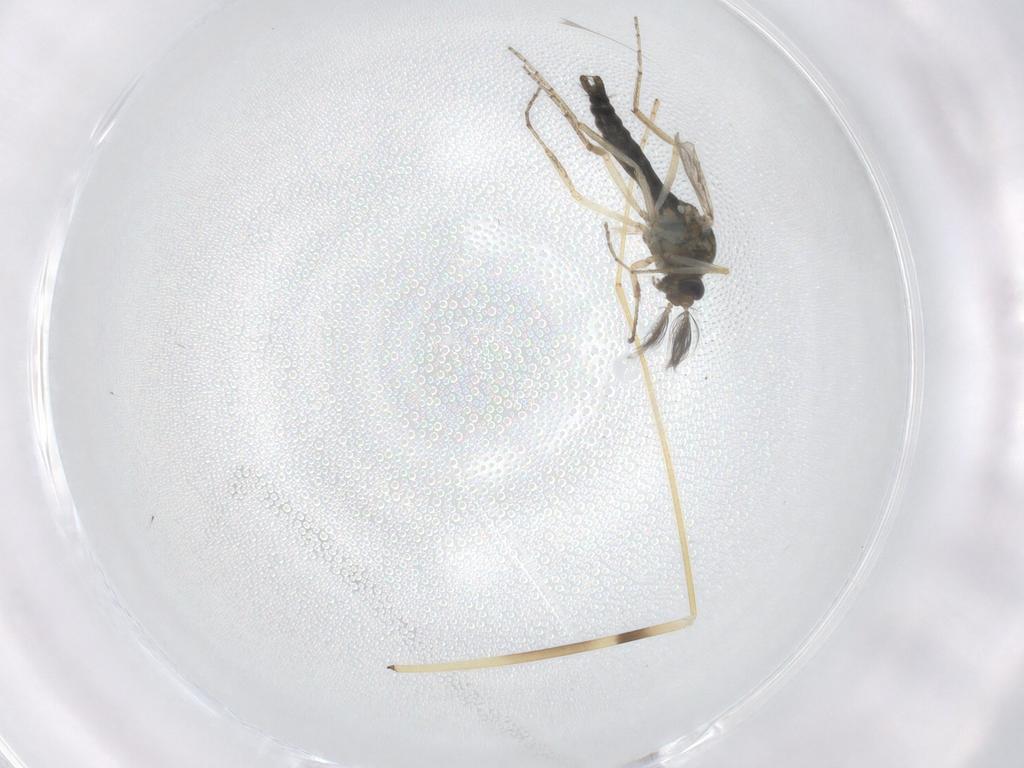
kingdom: Animalia
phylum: Arthropoda
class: Insecta
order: Diptera
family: Ceratopogonidae
